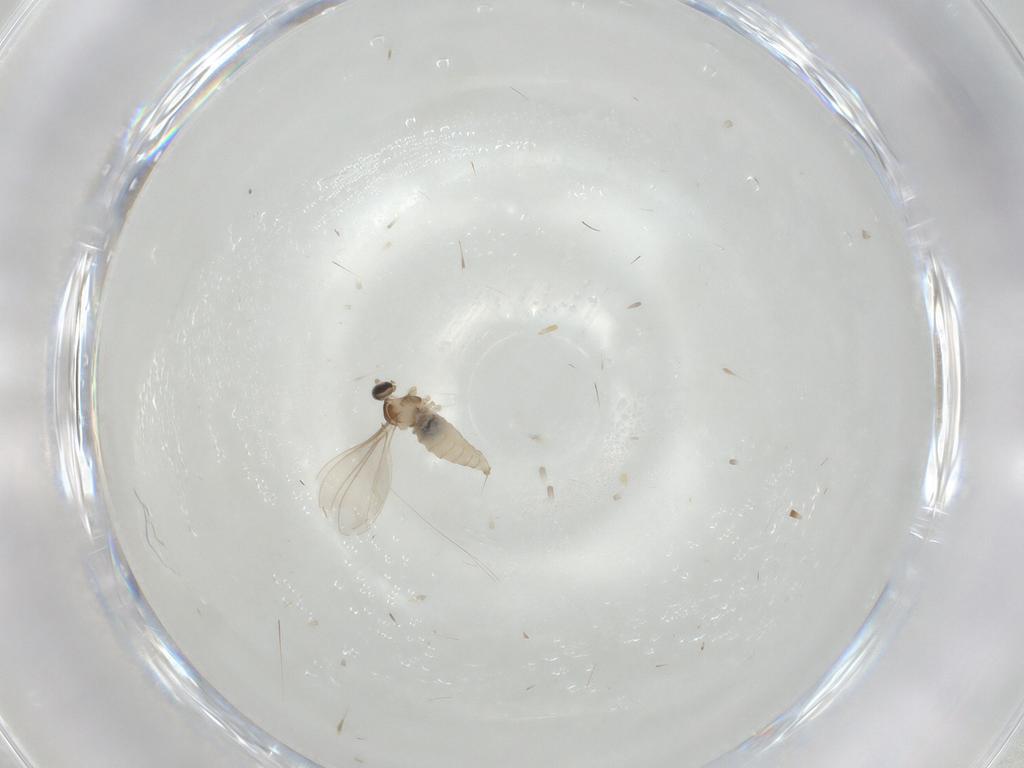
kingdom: Animalia
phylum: Arthropoda
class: Insecta
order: Diptera
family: Cecidomyiidae
